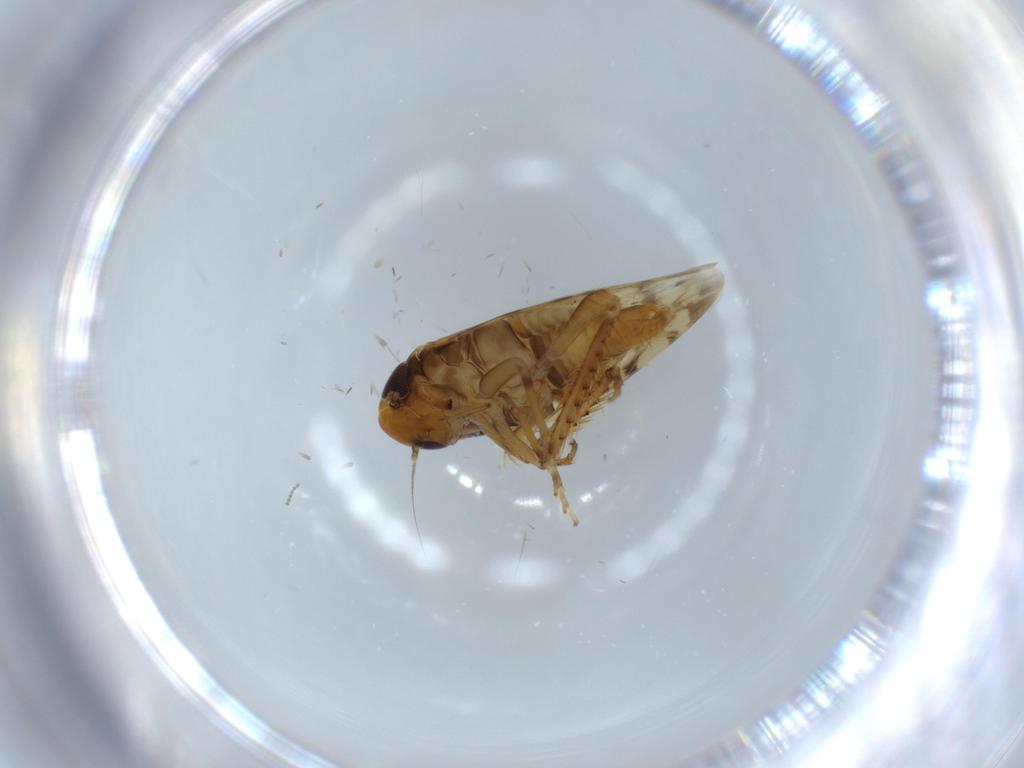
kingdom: Animalia
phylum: Arthropoda
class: Insecta
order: Hemiptera
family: Cicadellidae
